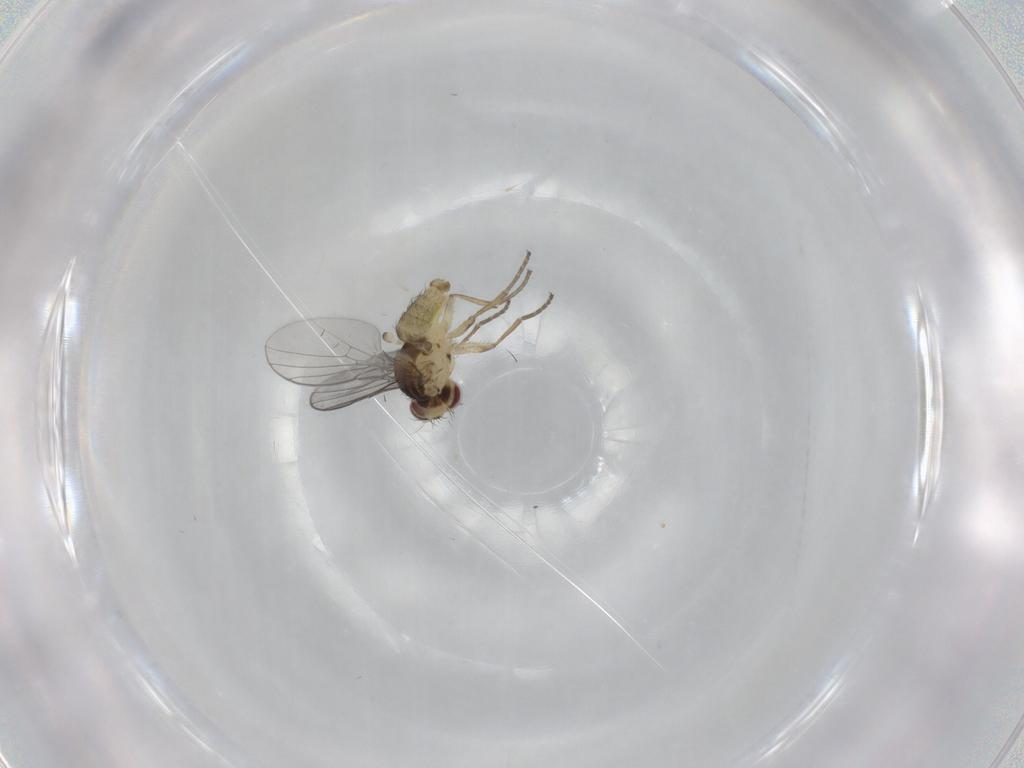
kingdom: Animalia
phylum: Arthropoda
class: Insecta
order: Diptera
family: Agromyzidae
